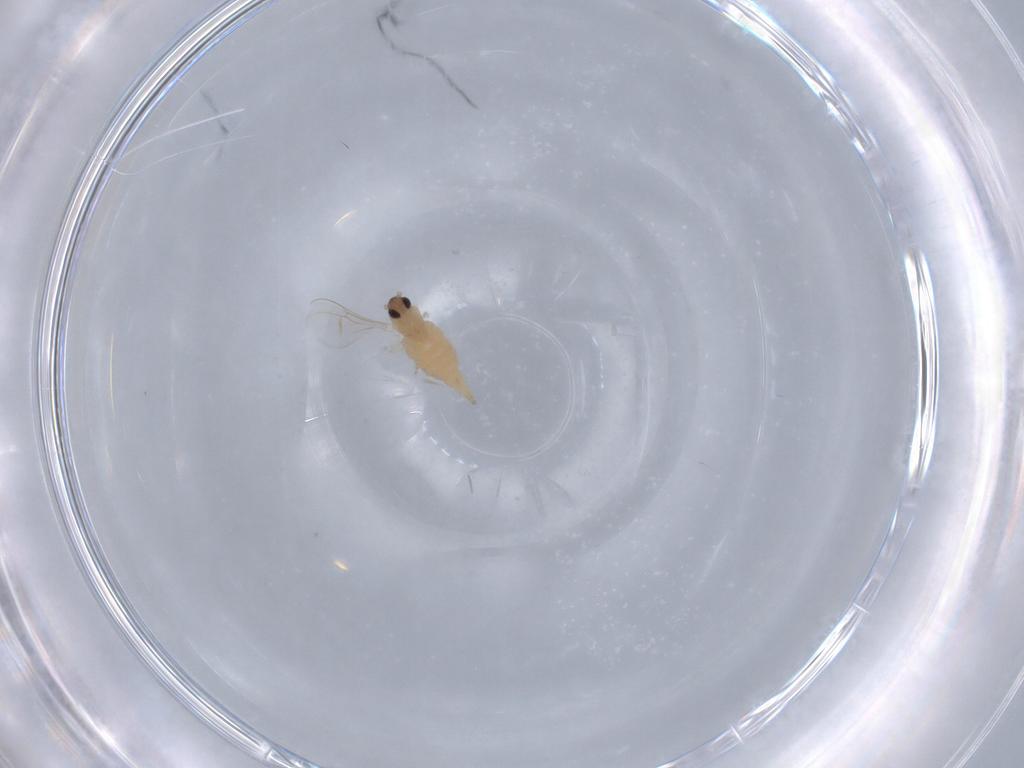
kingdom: Animalia
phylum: Arthropoda
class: Insecta
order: Diptera
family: Cecidomyiidae
